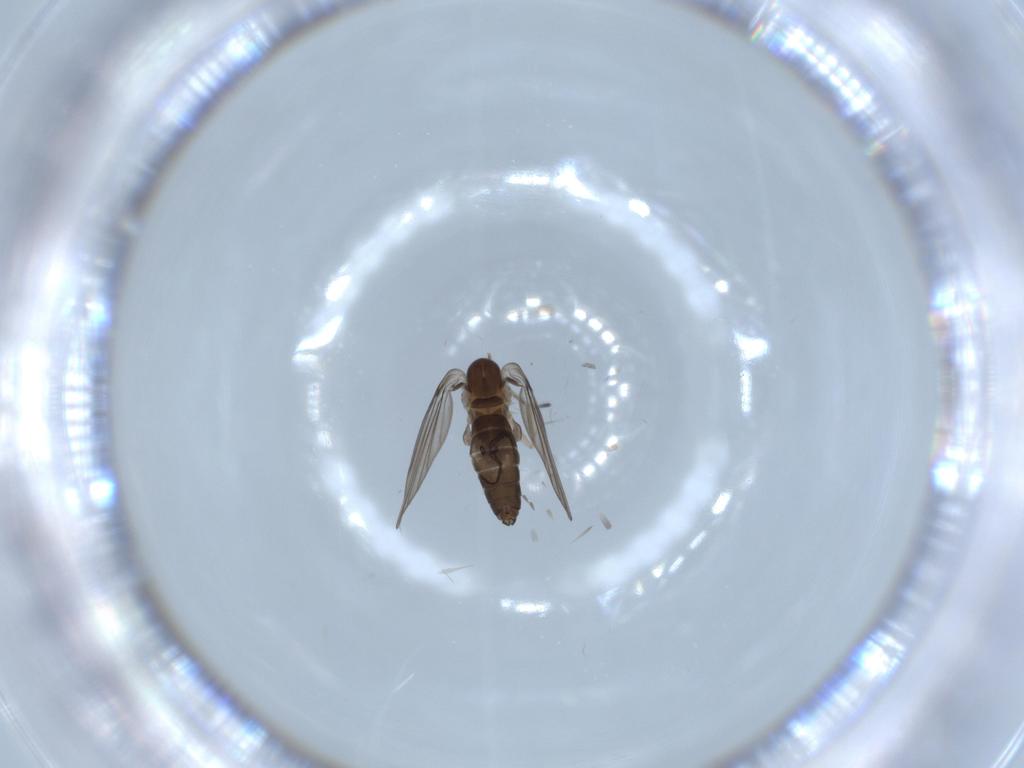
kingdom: Animalia
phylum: Arthropoda
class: Insecta
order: Diptera
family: Psychodidae
